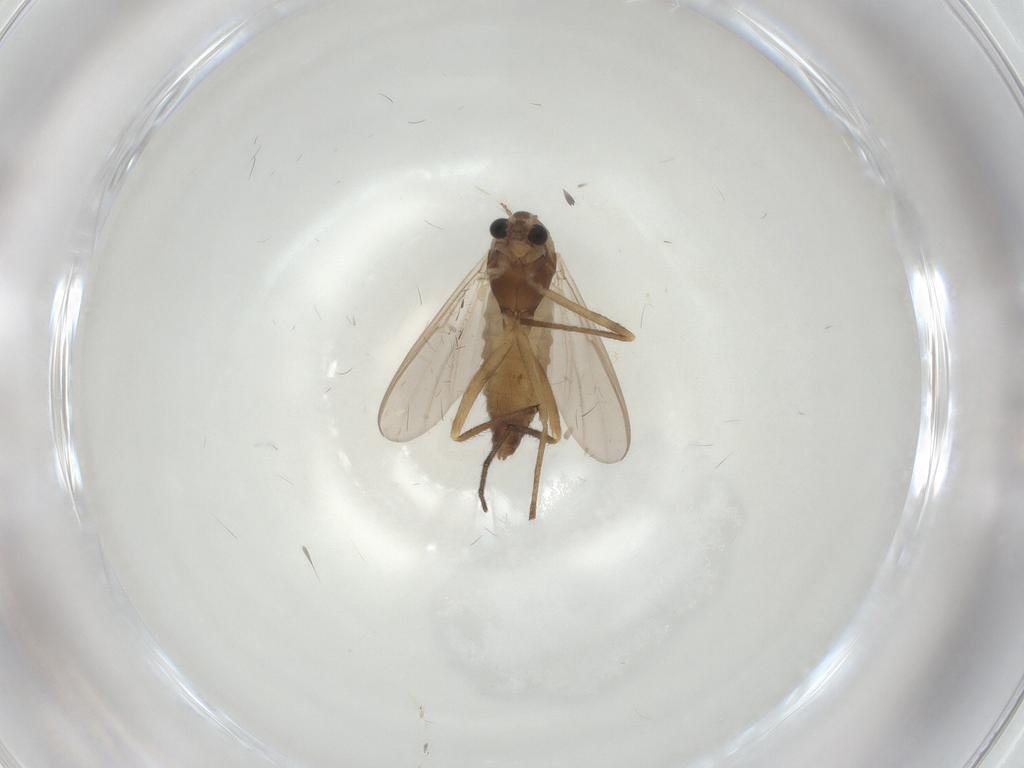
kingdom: Animalia
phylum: Arthropoda
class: Insecta
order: Diptera
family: Chironomidae
